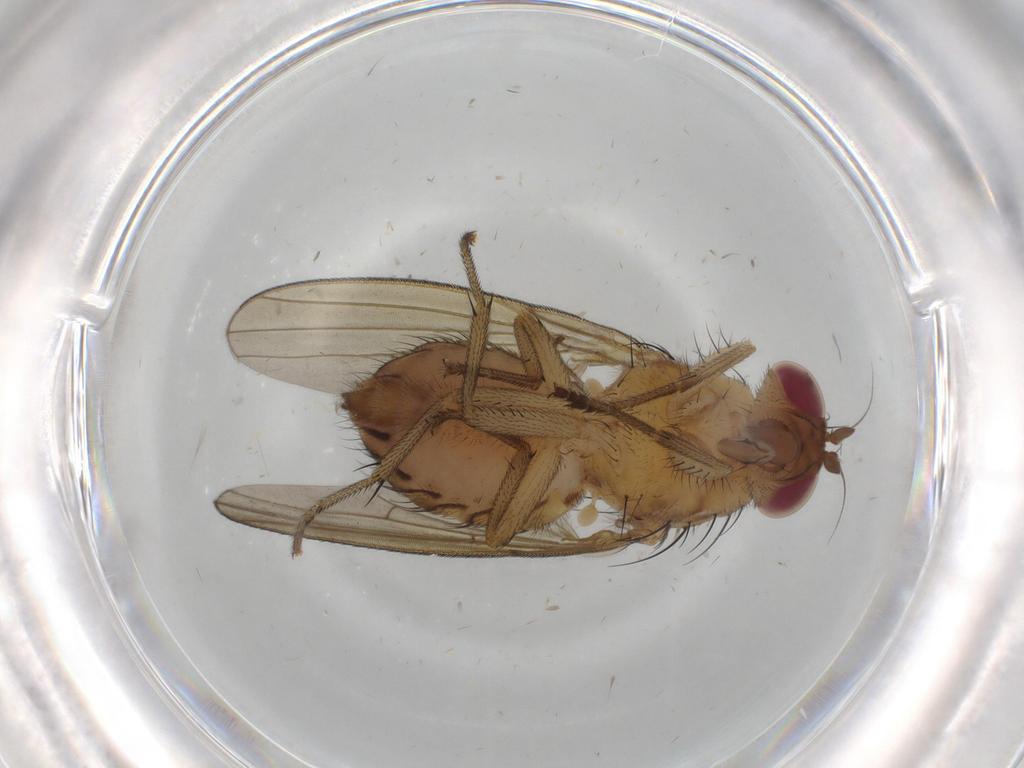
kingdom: Animalia
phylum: Arthropoda
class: Insecta
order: Diptera
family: Chironomidae
